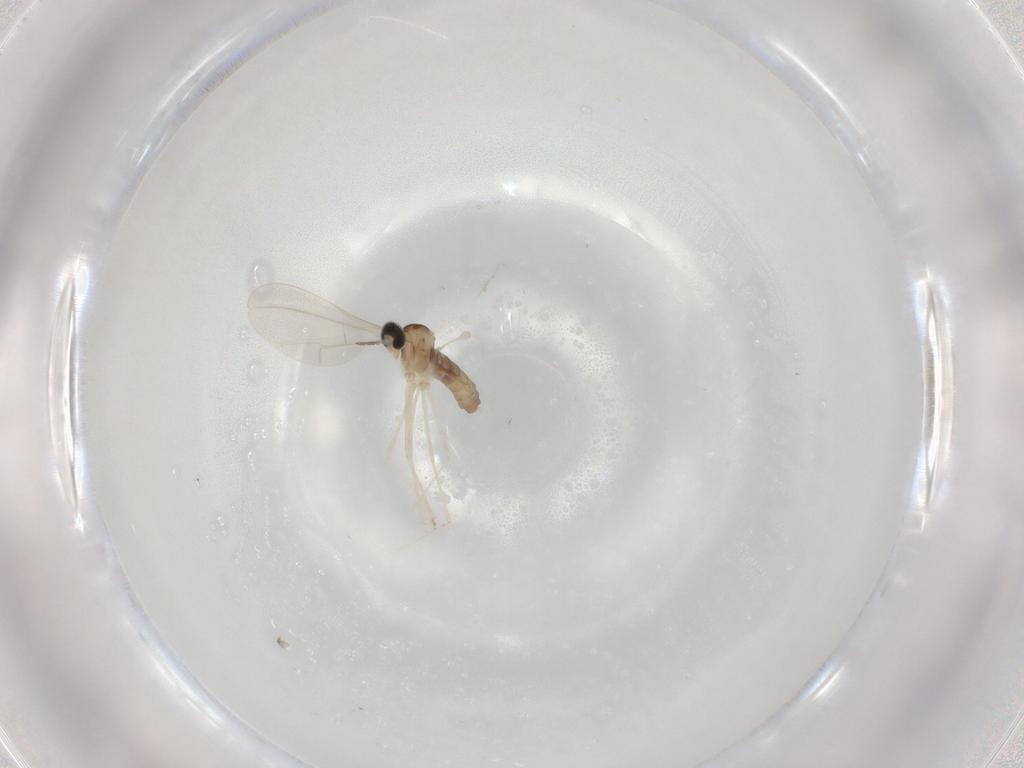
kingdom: Animalia
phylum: Arthropoda
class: Insecta
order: Diptera
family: Cecidomyiidae
